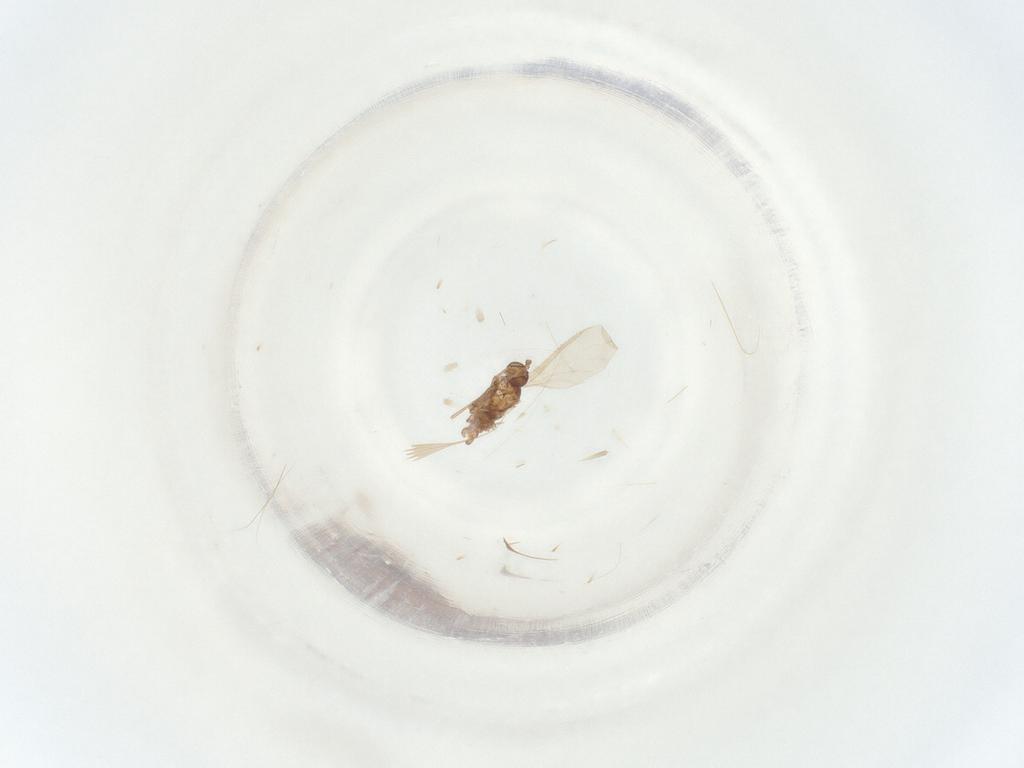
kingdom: Animalia
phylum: Arthropoda
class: Insecta
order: Diptera
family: Sciaridae
